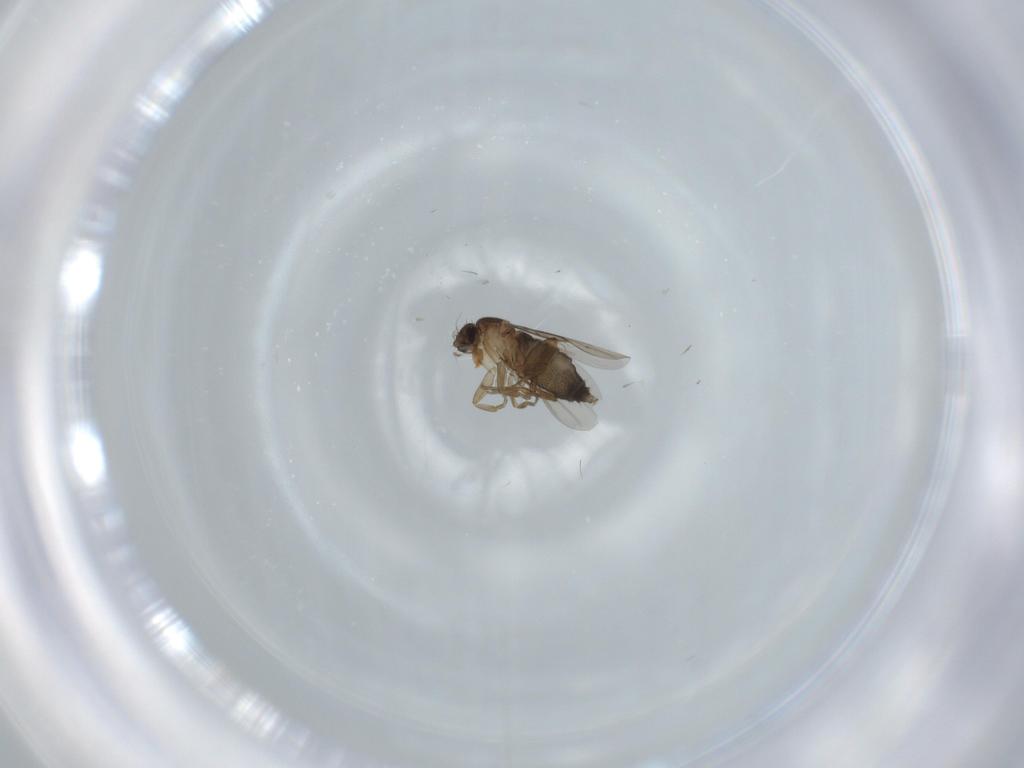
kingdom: Animalia
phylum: Arthropoda
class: Insecta
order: Diptera
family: Phoridae
